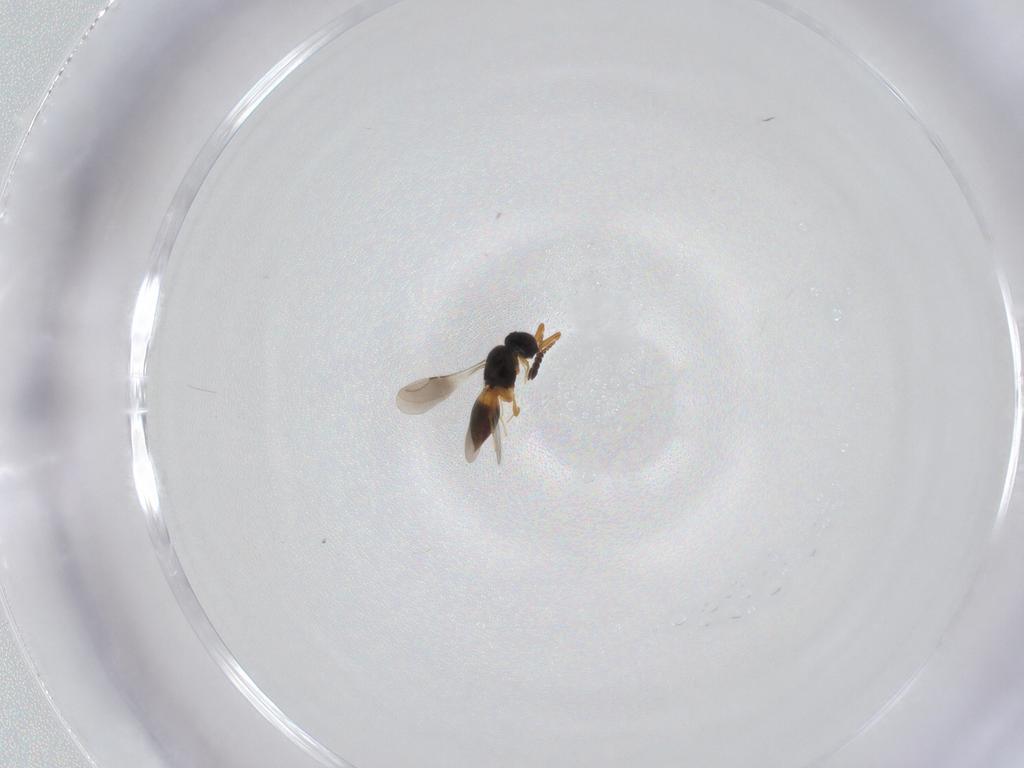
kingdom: Animalia
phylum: Arthropoda
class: Insecta
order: Hymenoptera
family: Scelionidae
